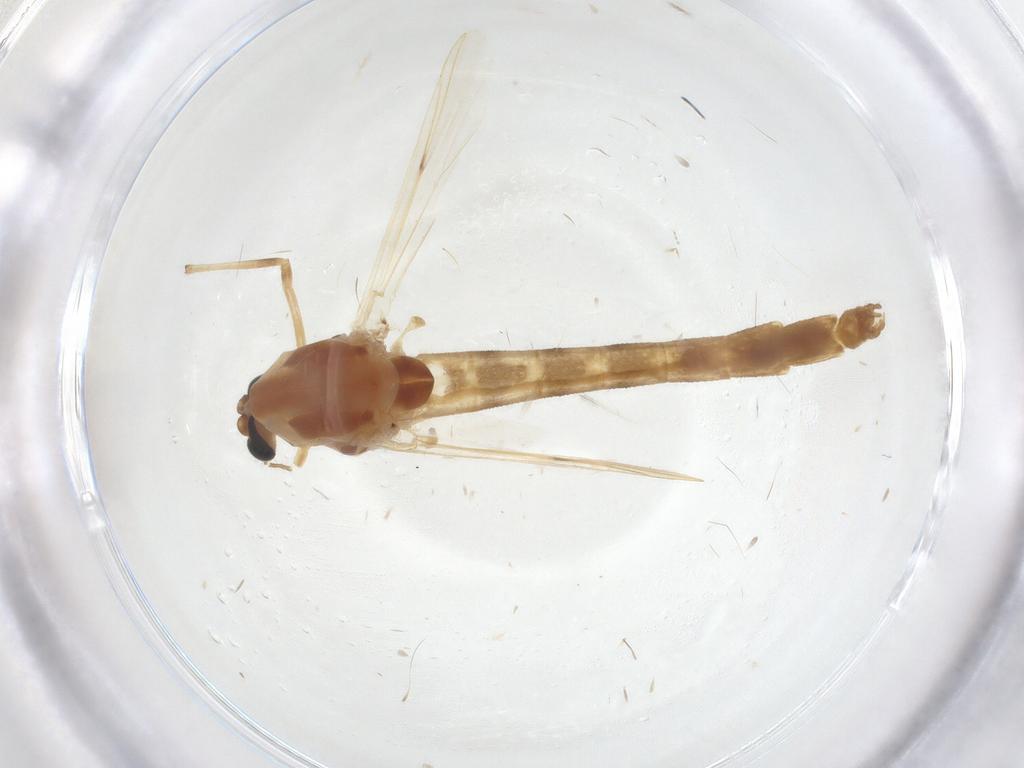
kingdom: Animalia
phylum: Arthropoda
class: Insecta
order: Diptera
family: Chironomidae
